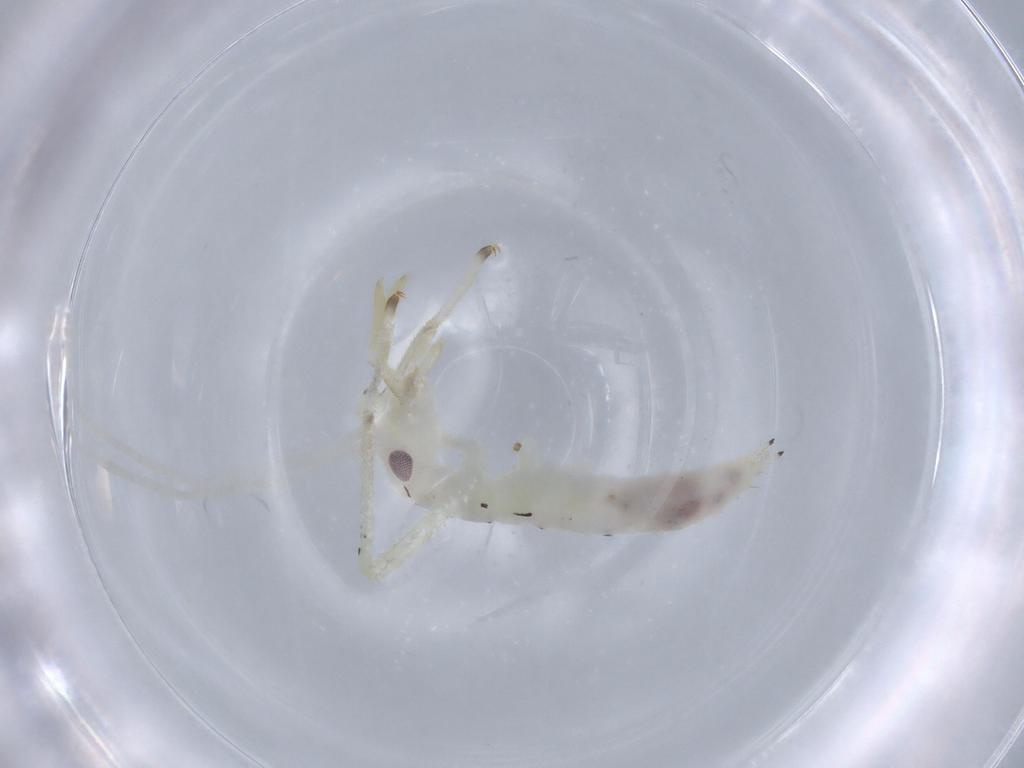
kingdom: Animalia
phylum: Arthropoda
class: Insecta
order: Orthoptera
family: Oecanthidae
